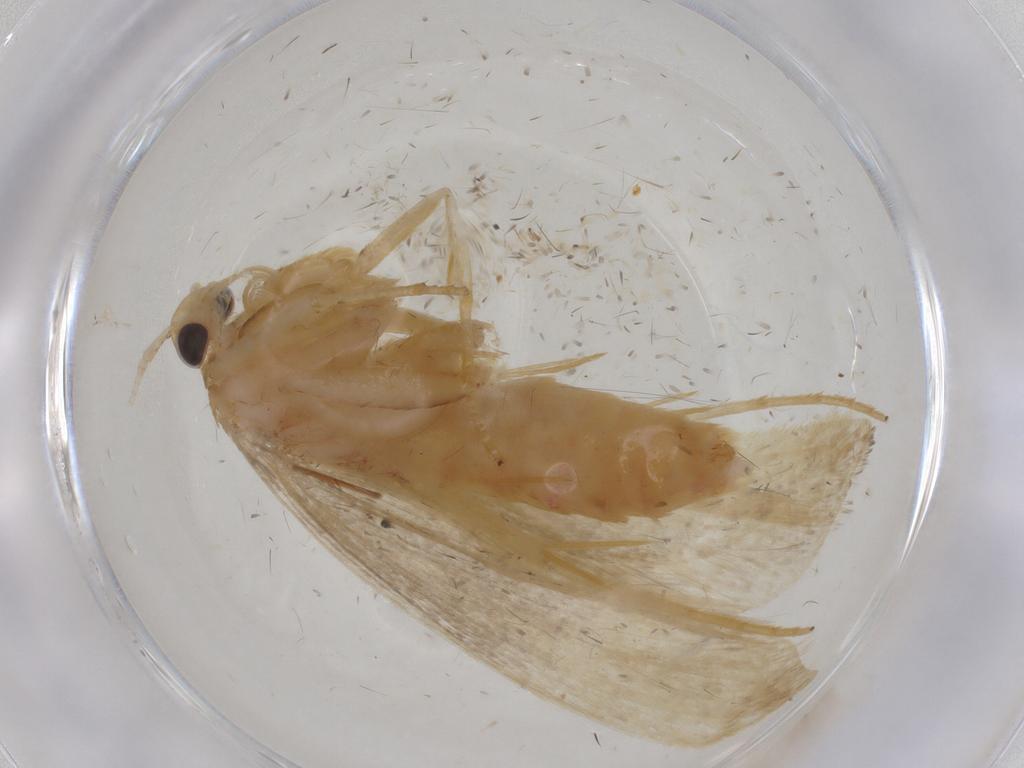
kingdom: Animalia
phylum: Arthropoda
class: Insecta
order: Lepidoptera
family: Lecithoceridae
